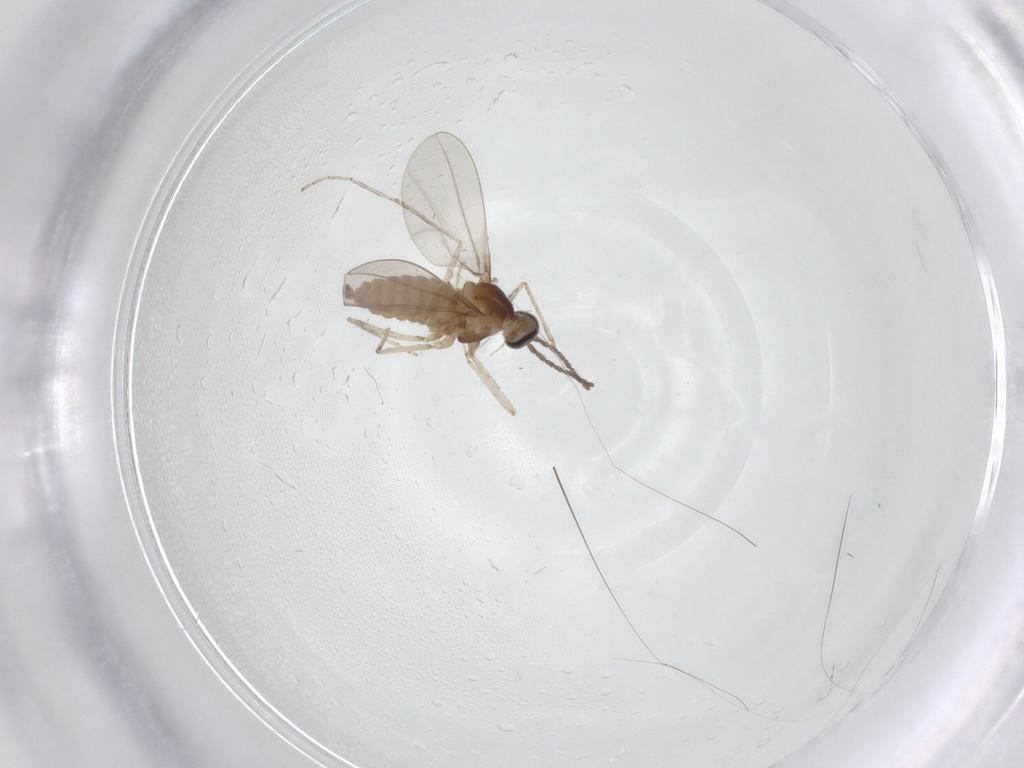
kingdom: Animalia
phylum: Arthropoda
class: Insecta
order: Diptera
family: Cecidomyiidae
